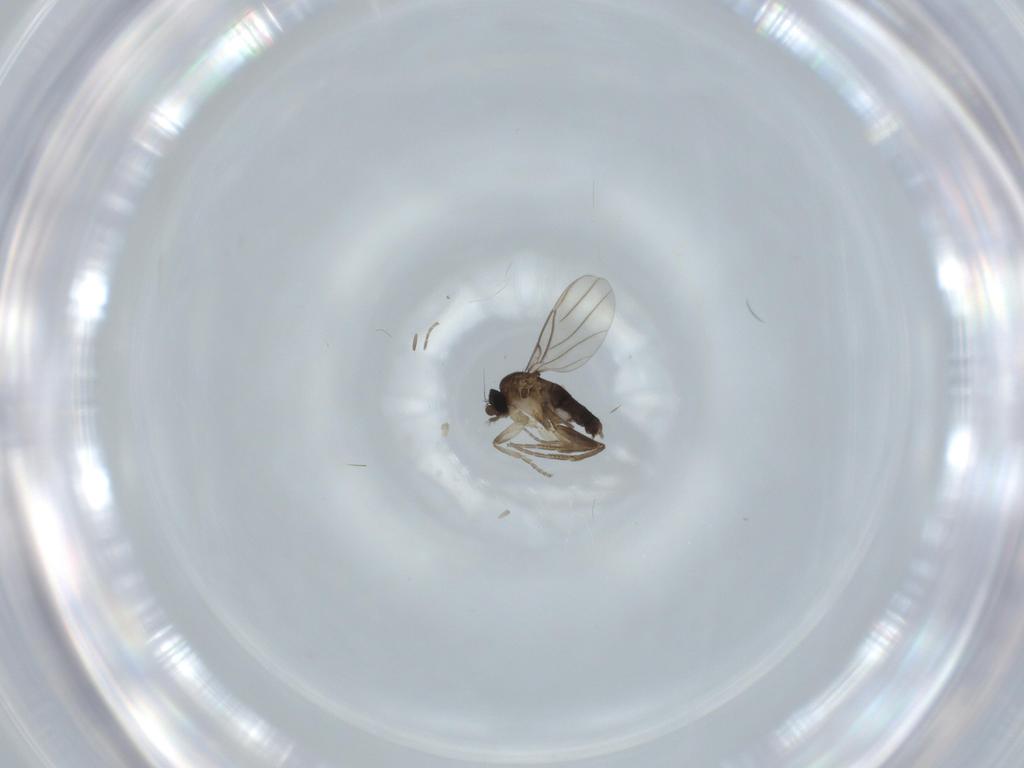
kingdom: Animalia
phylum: Arthropoda
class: Insecta
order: Diptera
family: Phoridae
